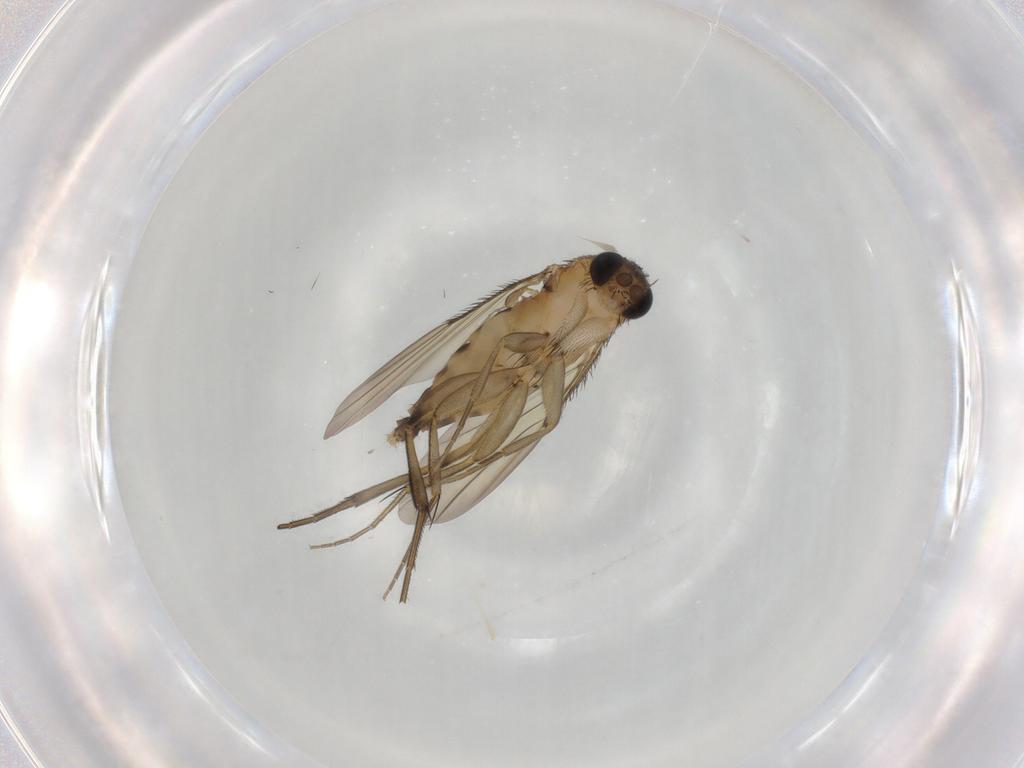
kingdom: Animalia
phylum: Arthropoda
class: Insecta
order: Diptera
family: Phoridae
